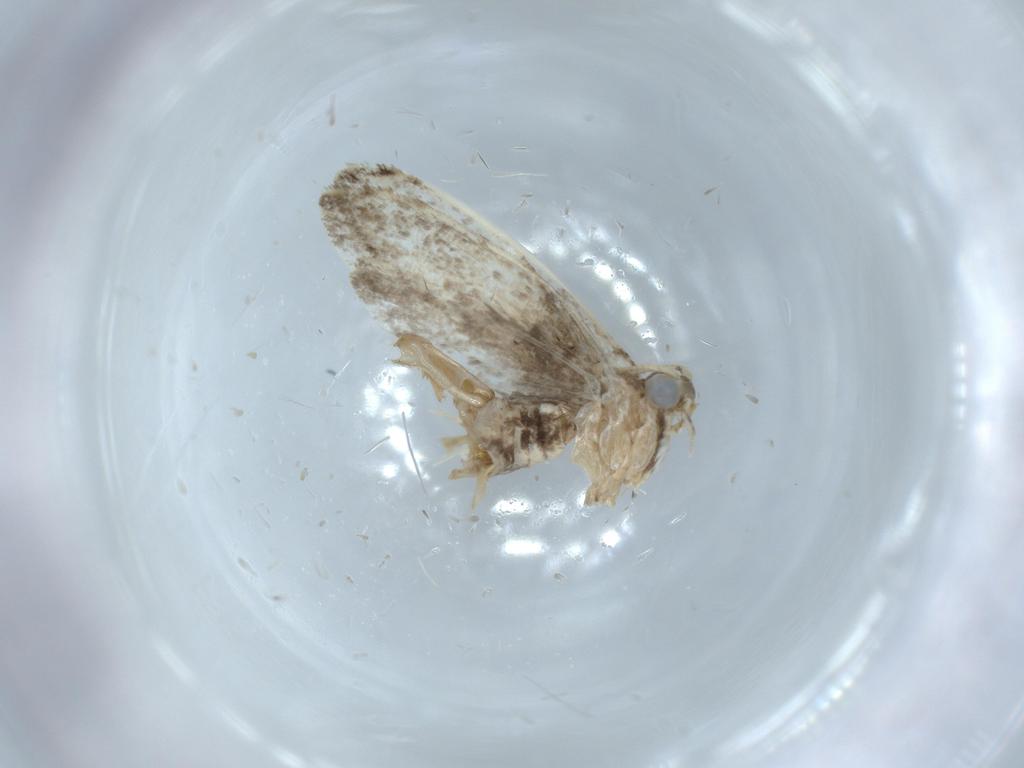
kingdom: Animalia
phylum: Arthropoda
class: Insecta
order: Lepidoptera
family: Tineidae
